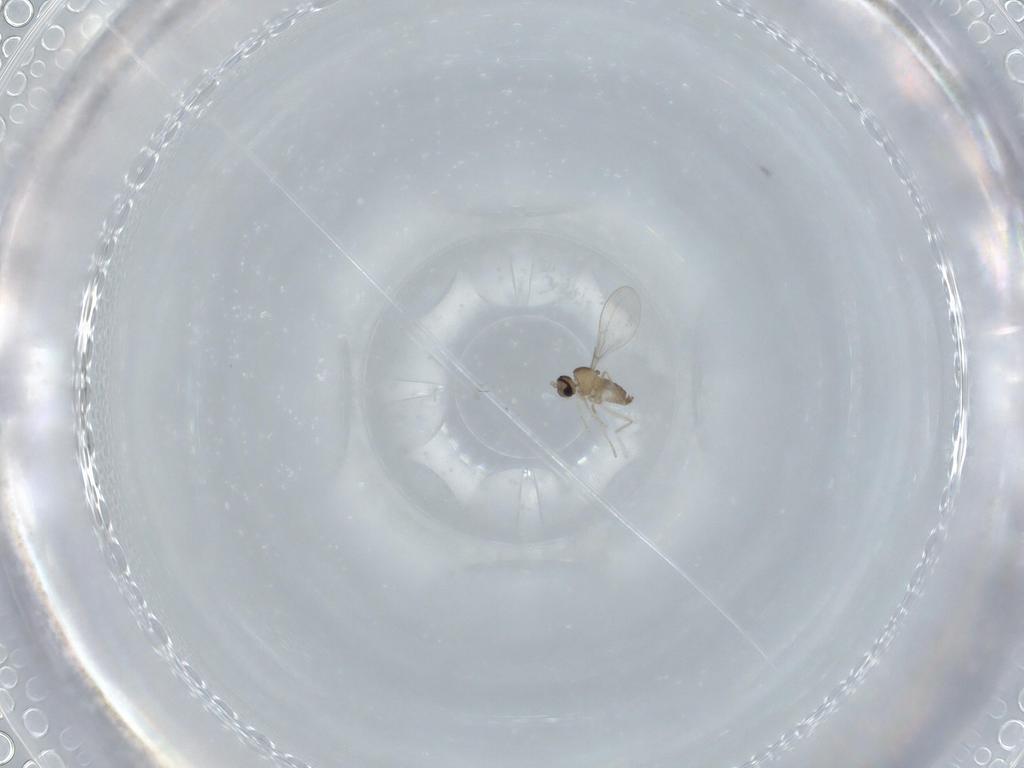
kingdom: Animalia
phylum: Arthropoda
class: Insecta
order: Diptera
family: Cecidomyiidae
